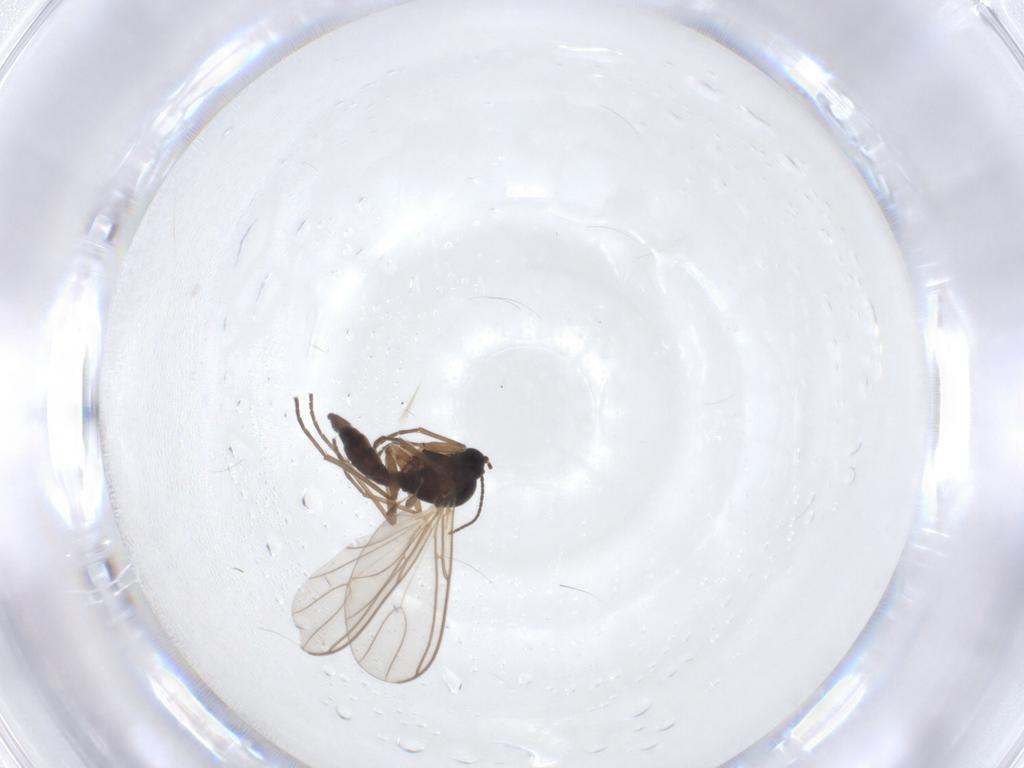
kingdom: Animalia
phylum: Arthropoda
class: Insecta
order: Diptera
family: Sciaridae
